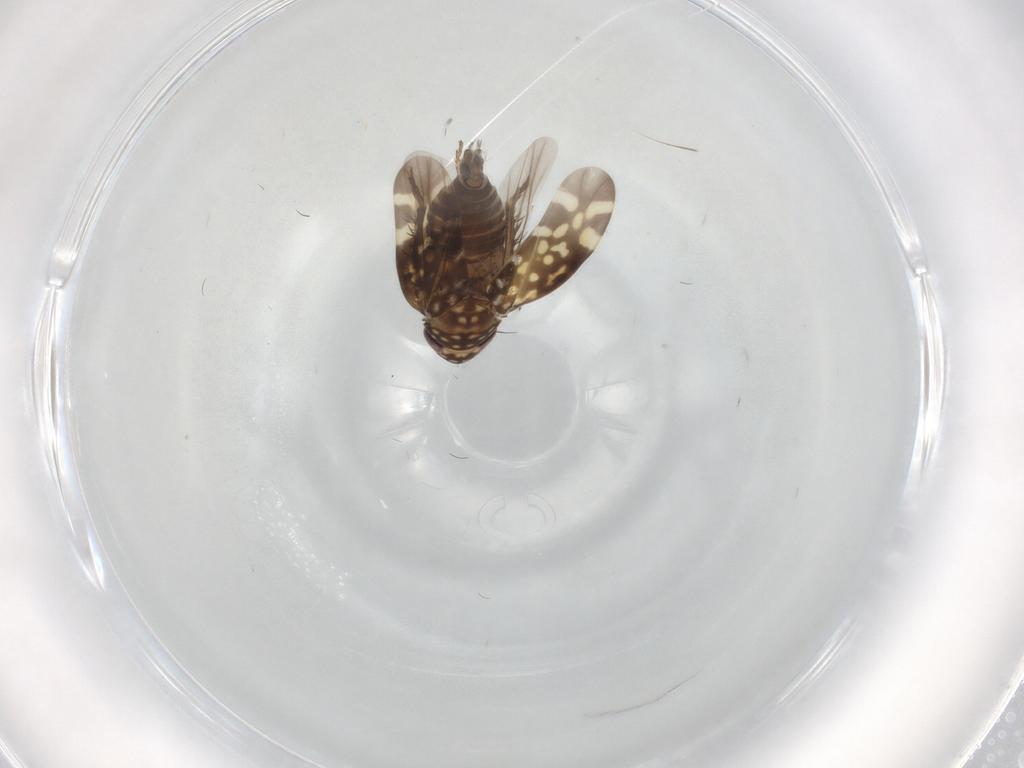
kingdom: Animalia
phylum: Arthropoda
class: Insecta
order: Hemiptera
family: Cicadellidae
